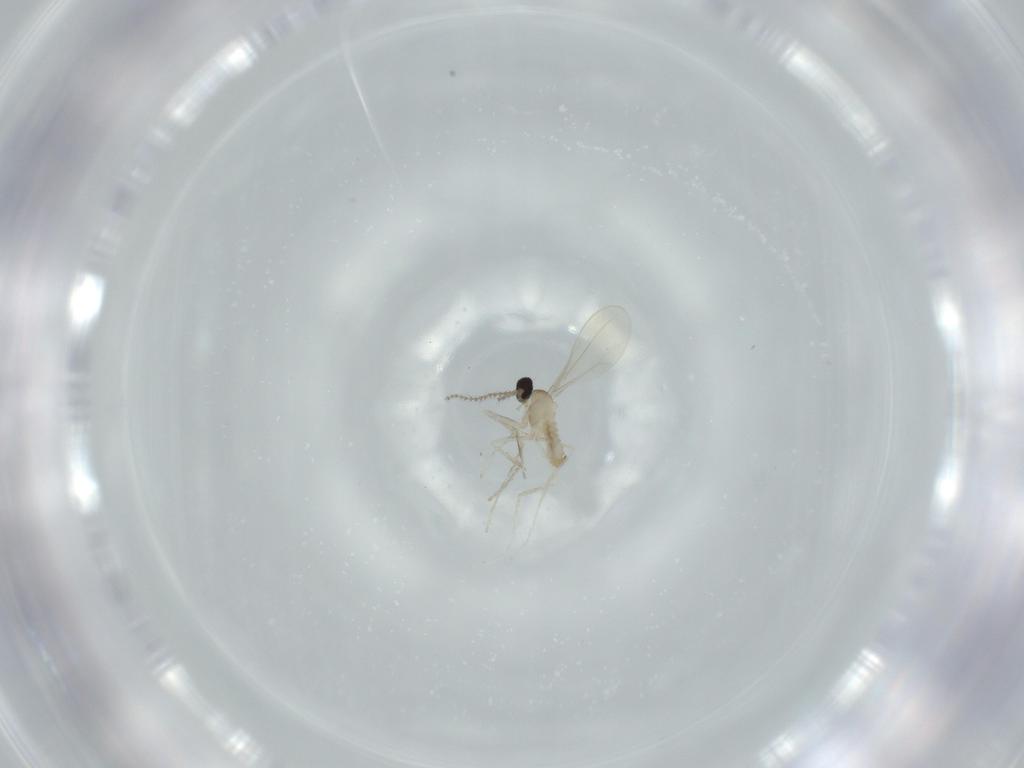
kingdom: Animalia
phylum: Arthropoda
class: Insecta
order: Diptera
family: Cecidomyiidae
